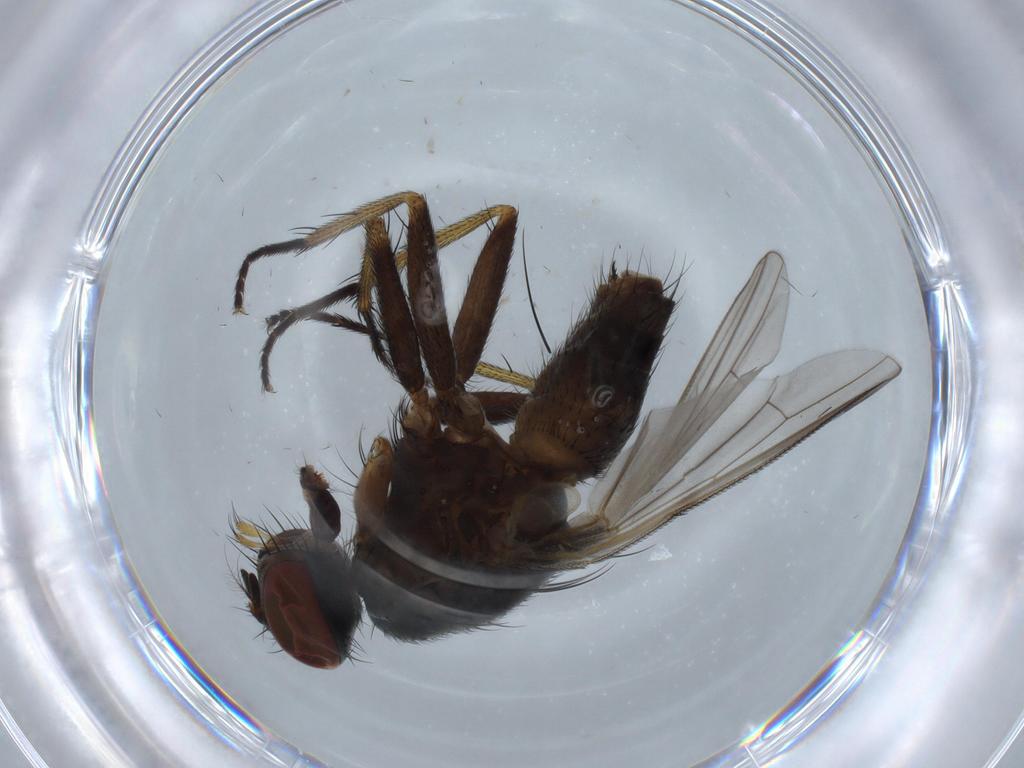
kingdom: Animalia
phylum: Arthropoda
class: Insecta
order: Diptera
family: Muscidae
